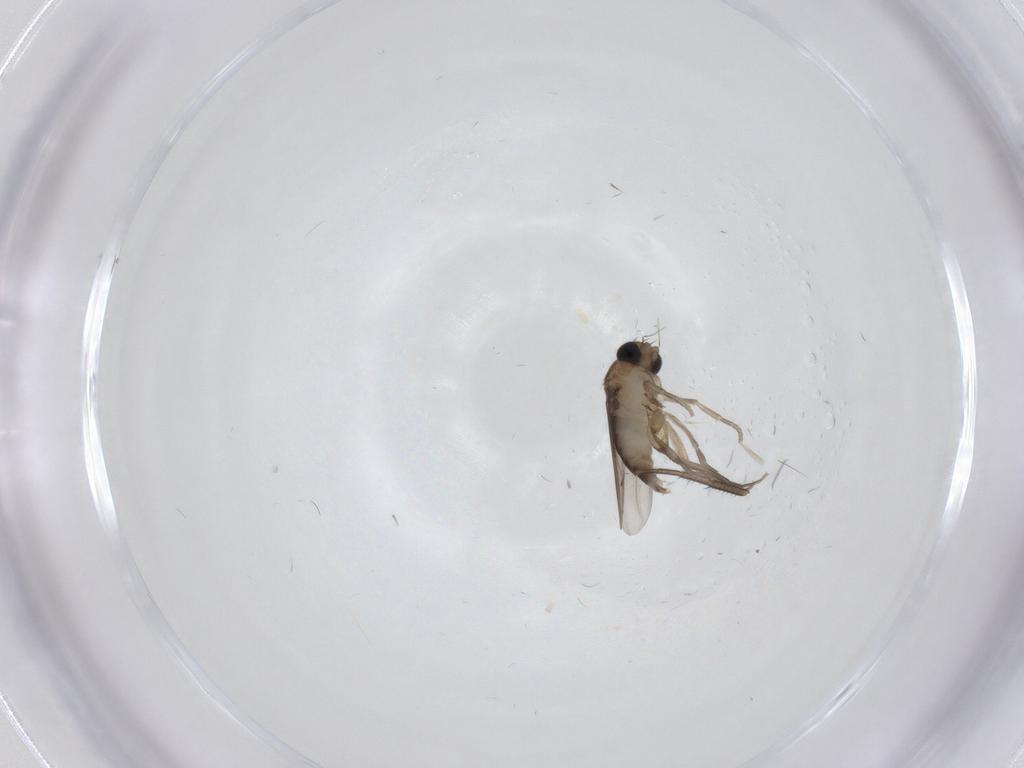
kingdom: Animalia
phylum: Arthropoda
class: Insecta
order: Diptera
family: Phoridae
